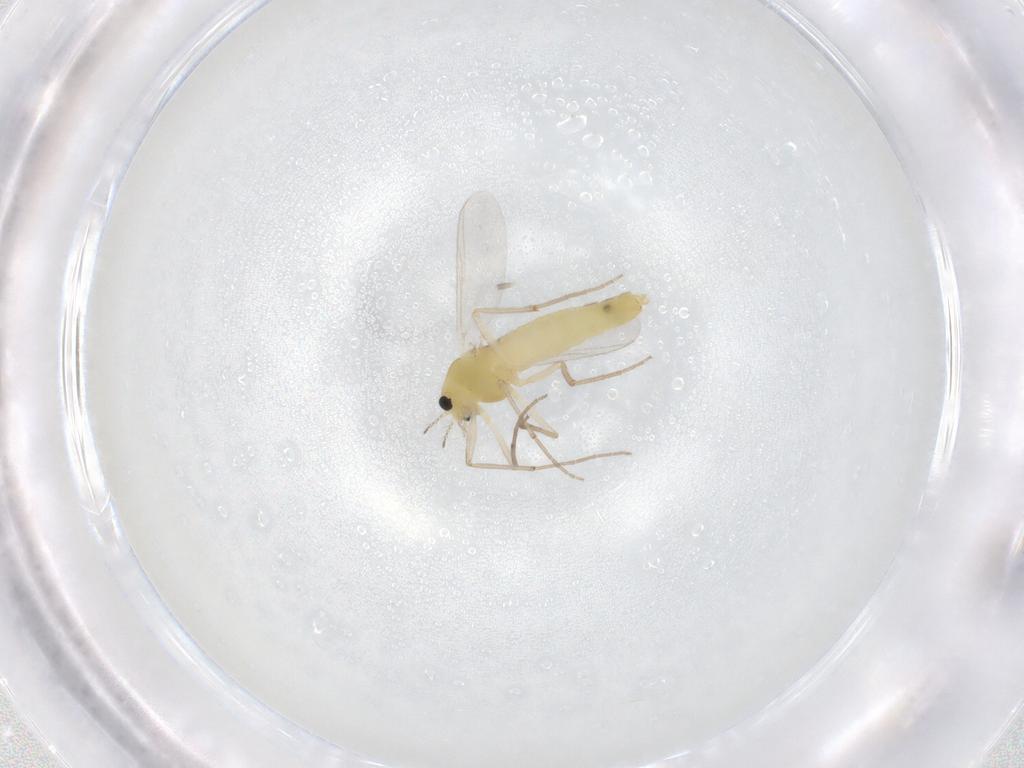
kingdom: Animalia
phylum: Arthropoda
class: Insecta
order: Diptera
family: Chironomidae
